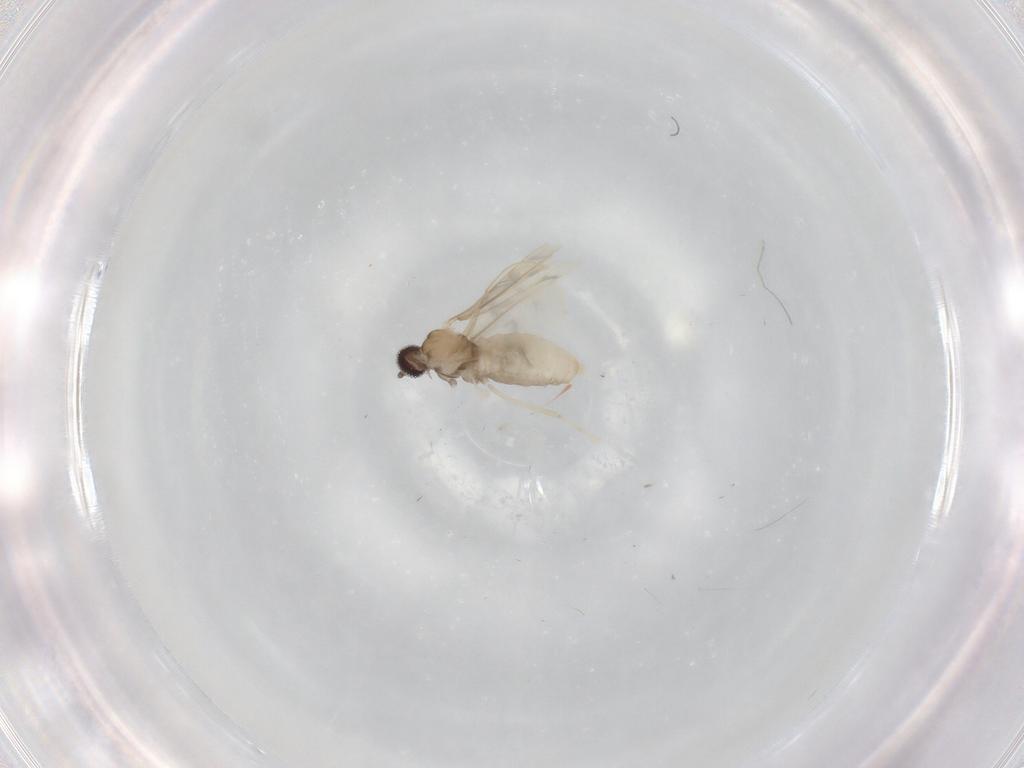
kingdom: Animalia
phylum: Arthropoda
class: Insecta
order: Diptera
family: Cecidomyiidae
